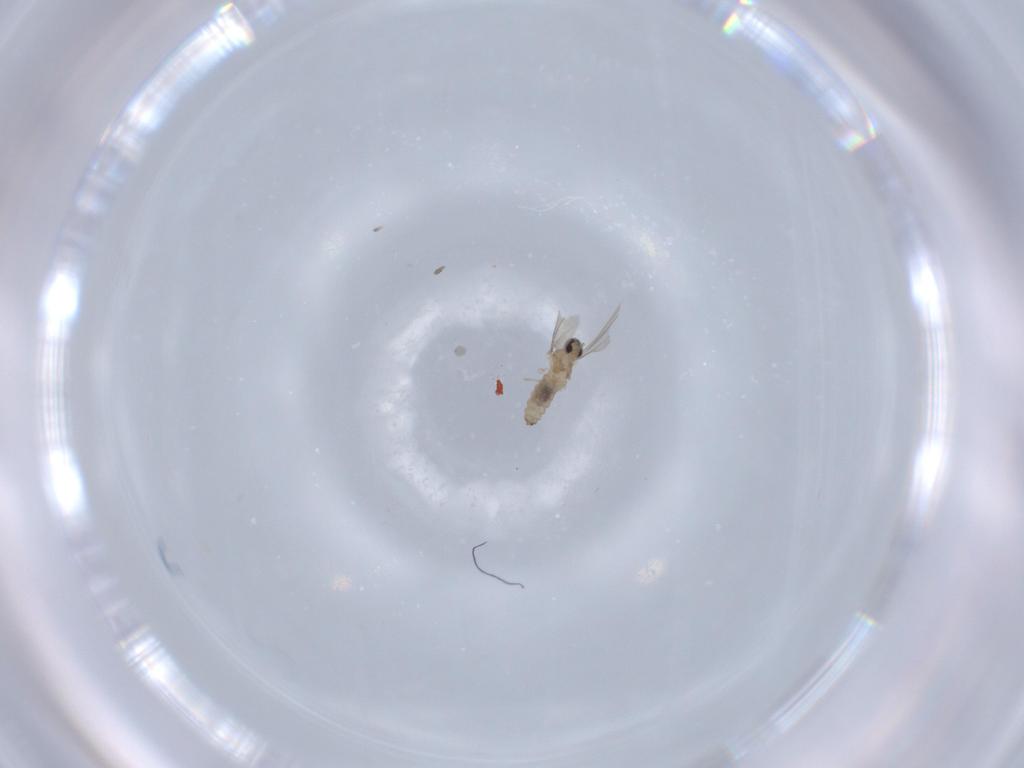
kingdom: Animalia
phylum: Arthropoda
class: Insecta
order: Diptera
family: Cecidomyiidae
